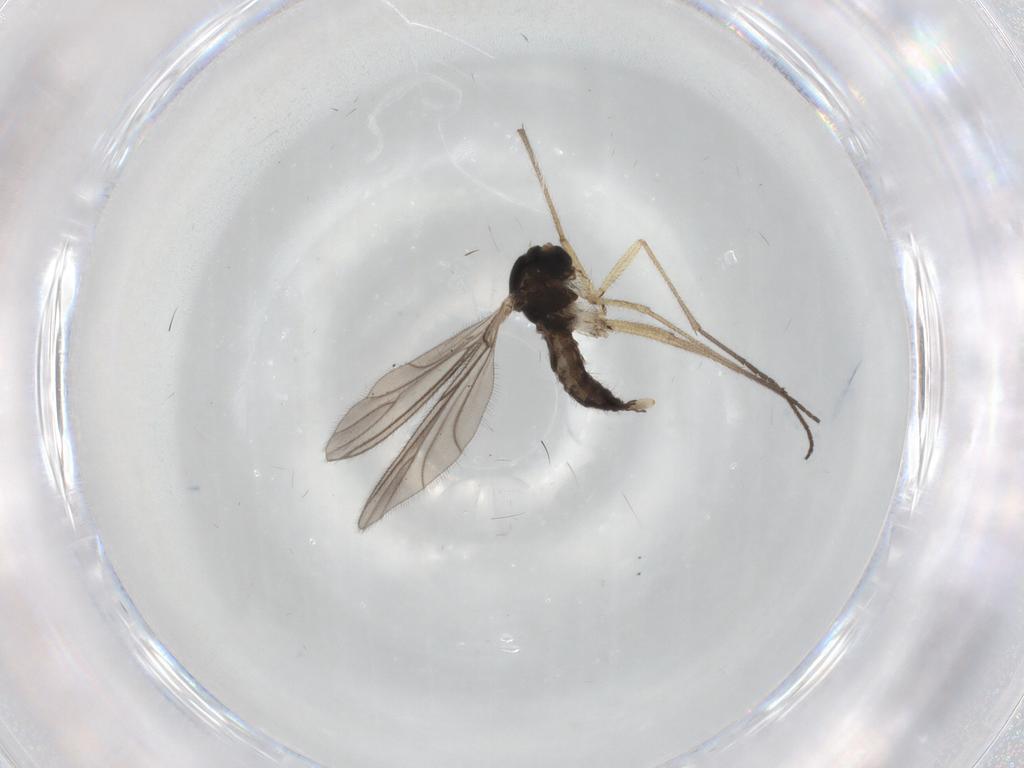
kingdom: Animalia
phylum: Arthropoda
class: Insecta
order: Diptera
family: Sciaridae
